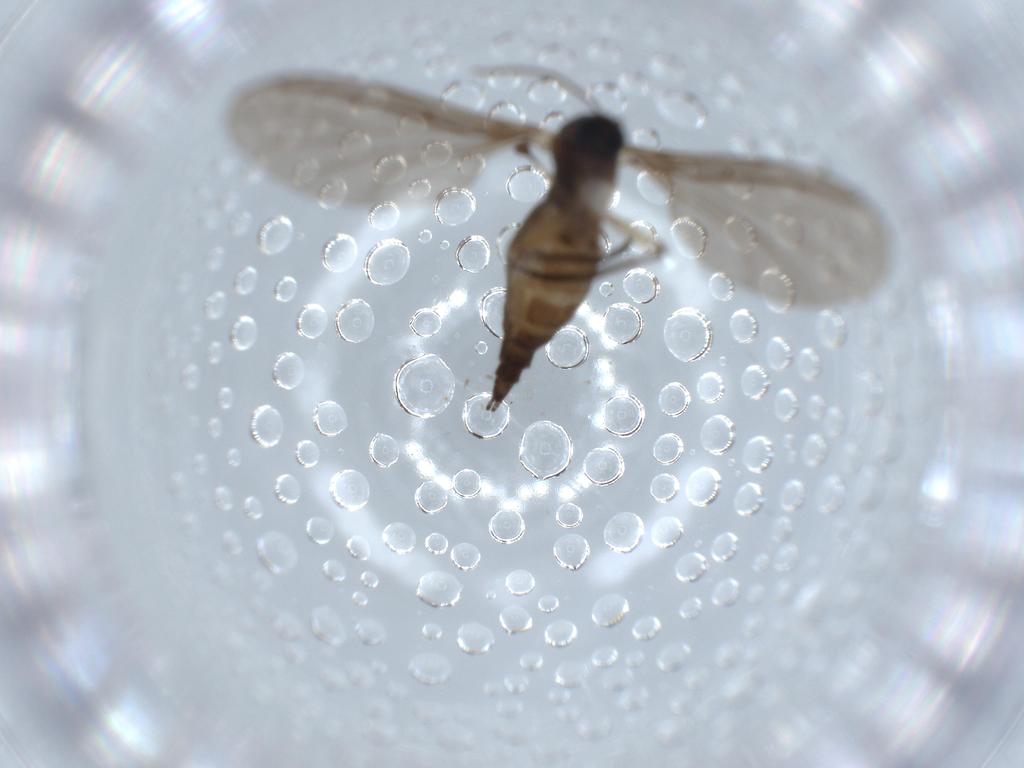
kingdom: Animalia
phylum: Arthropoda
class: Insecta
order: Diptera
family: Sciaridae
